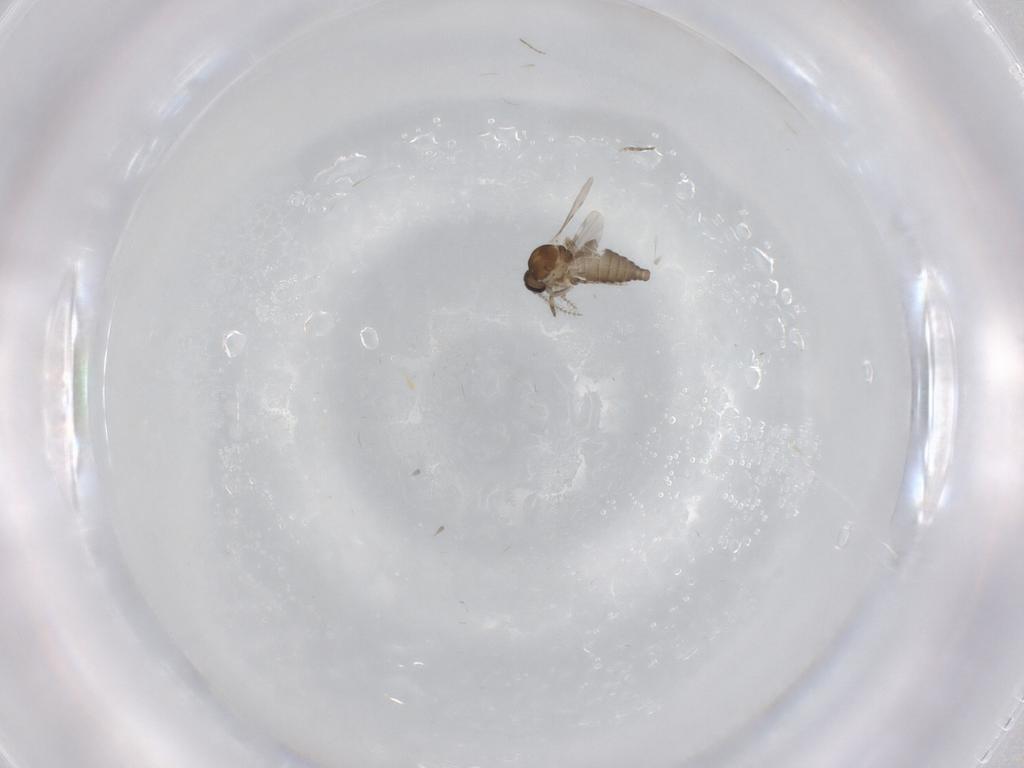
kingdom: Animalia
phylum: Arthropoda
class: Insecta
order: Diptera
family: Ceratopogonidae
